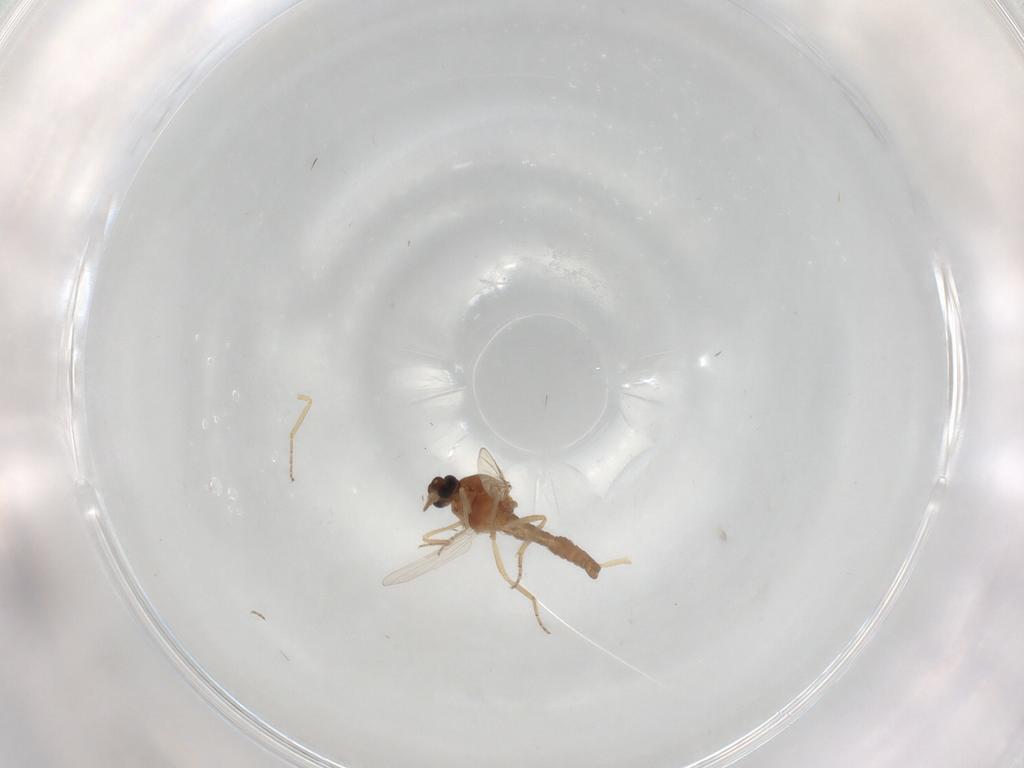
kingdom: Animalia
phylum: Arthropoda
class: Insecta
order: Diptera
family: Ceratopogonidae
